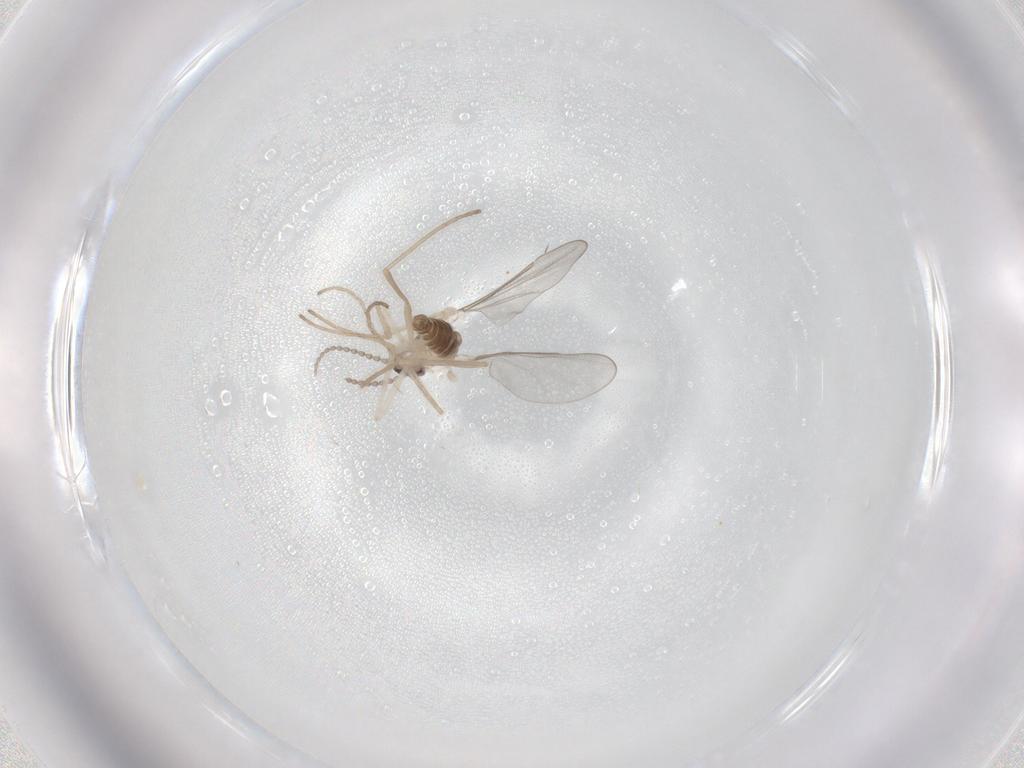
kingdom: Animalia
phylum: Arthropoda
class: Insecta
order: Diptera
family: Cecidomyiidae
